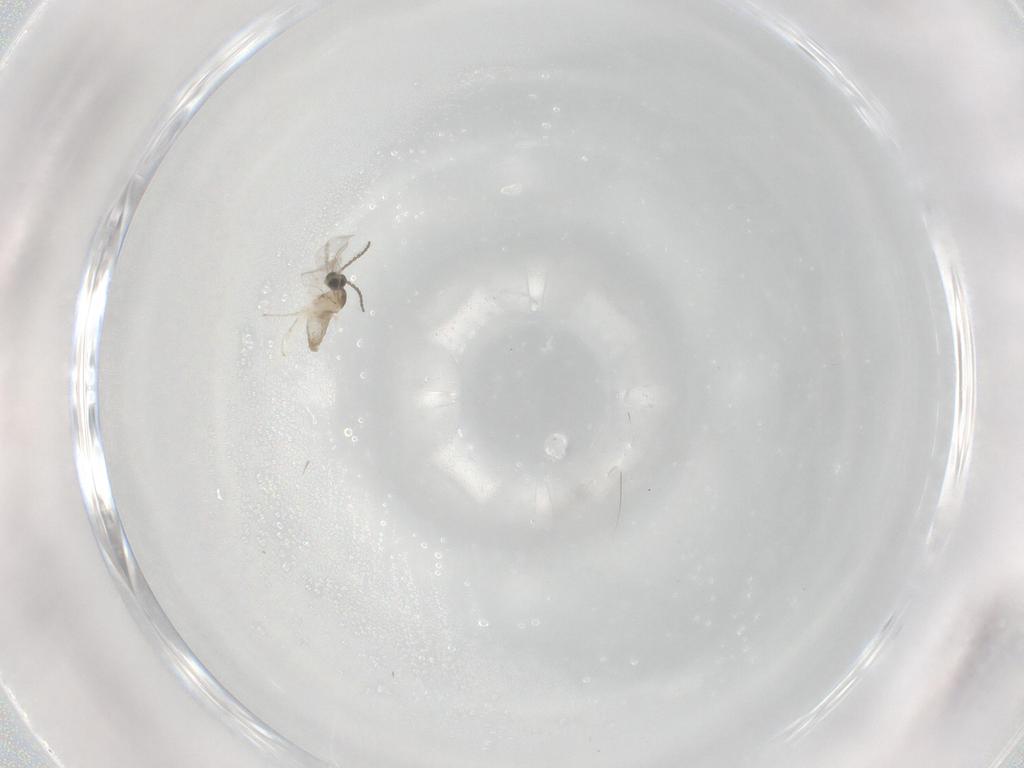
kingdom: Animalia
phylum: Arthropoda
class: Insecta
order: Diptera
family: Cecidomyiidae
